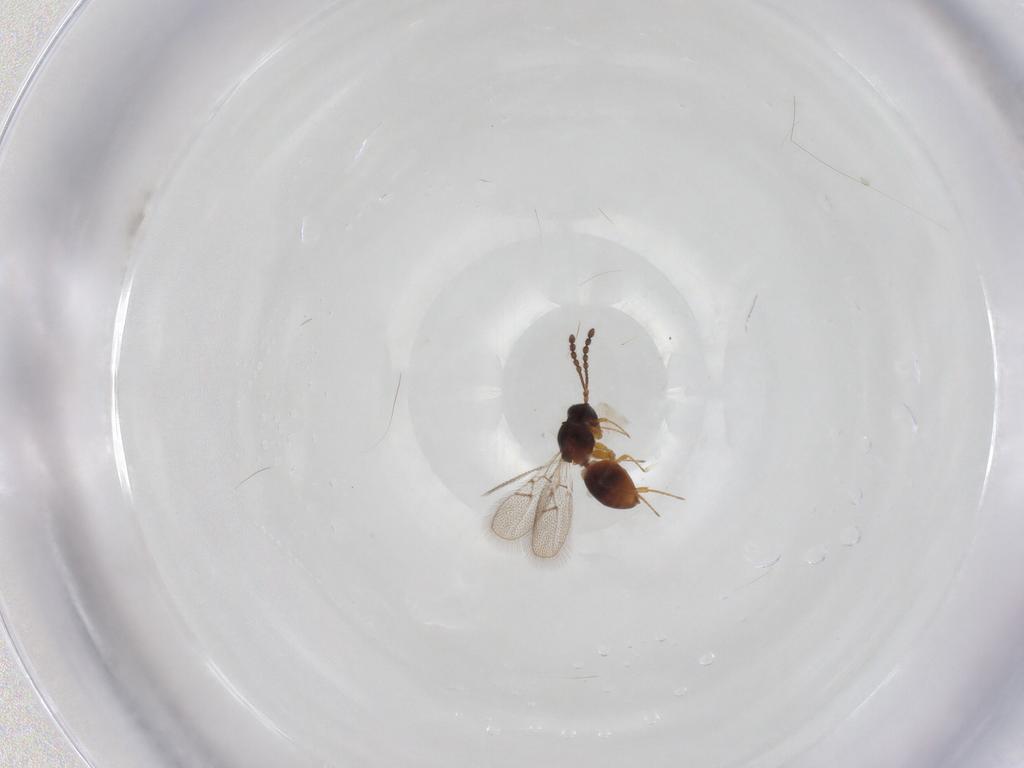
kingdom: Animalia
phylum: Arthropoda
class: Insecta
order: Hymenoptera
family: Figitidae
